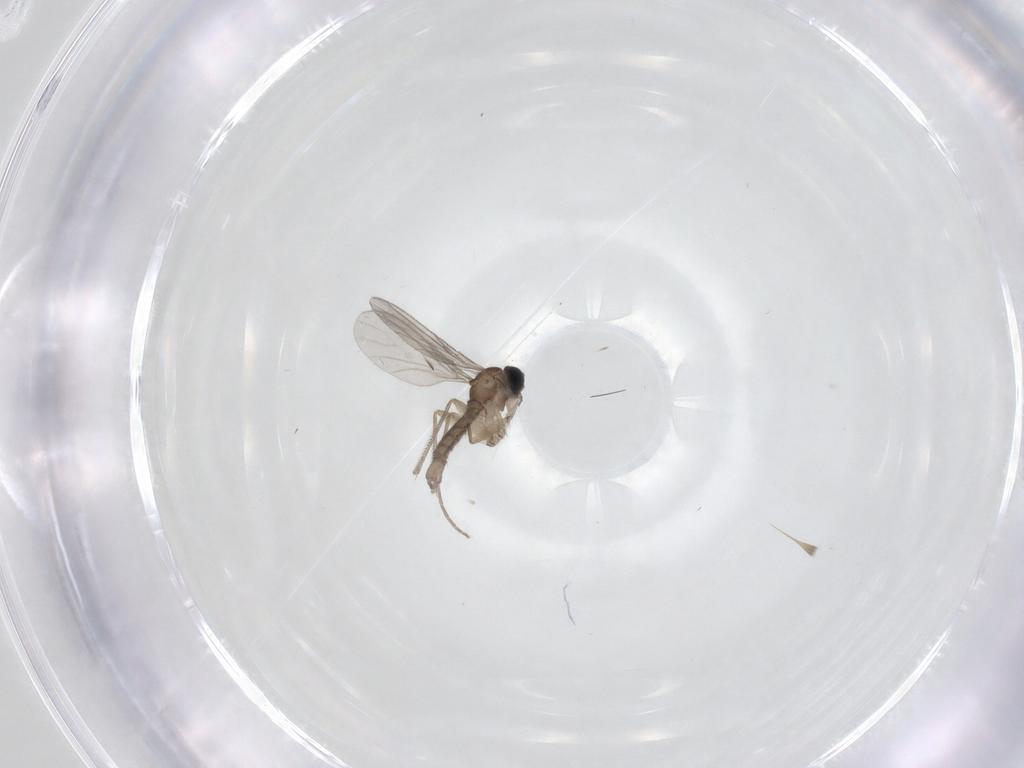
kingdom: Animalia
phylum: Arthropoda
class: Insecta
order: Diptera
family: Sciaridae
